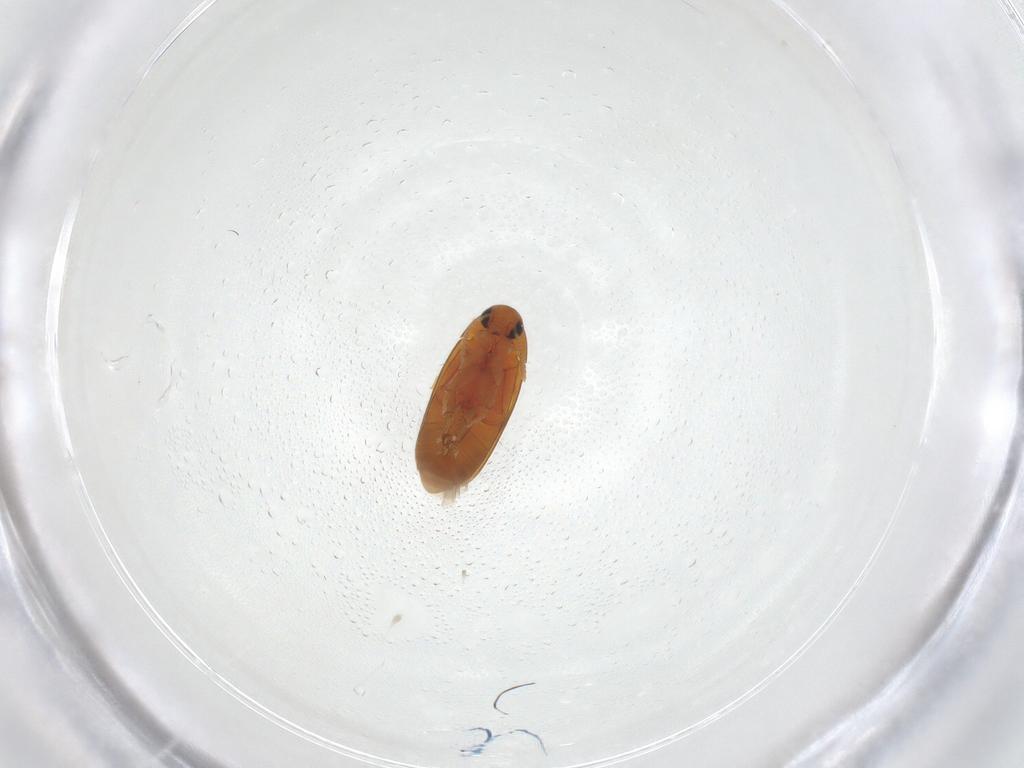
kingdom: Animalia
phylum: Arthropoda
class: Insecta
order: Coleoptera
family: Scraptiidae
